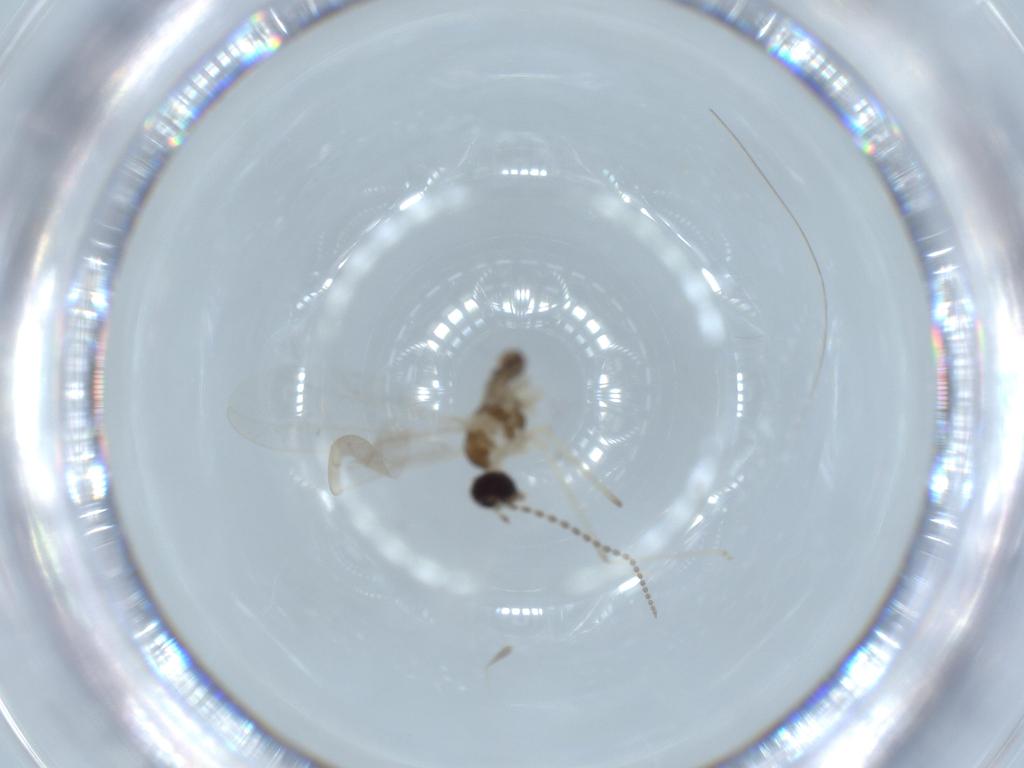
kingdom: Animalia
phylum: Arthropoda
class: Insecta
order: Diptera
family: Cecidomyiidae
